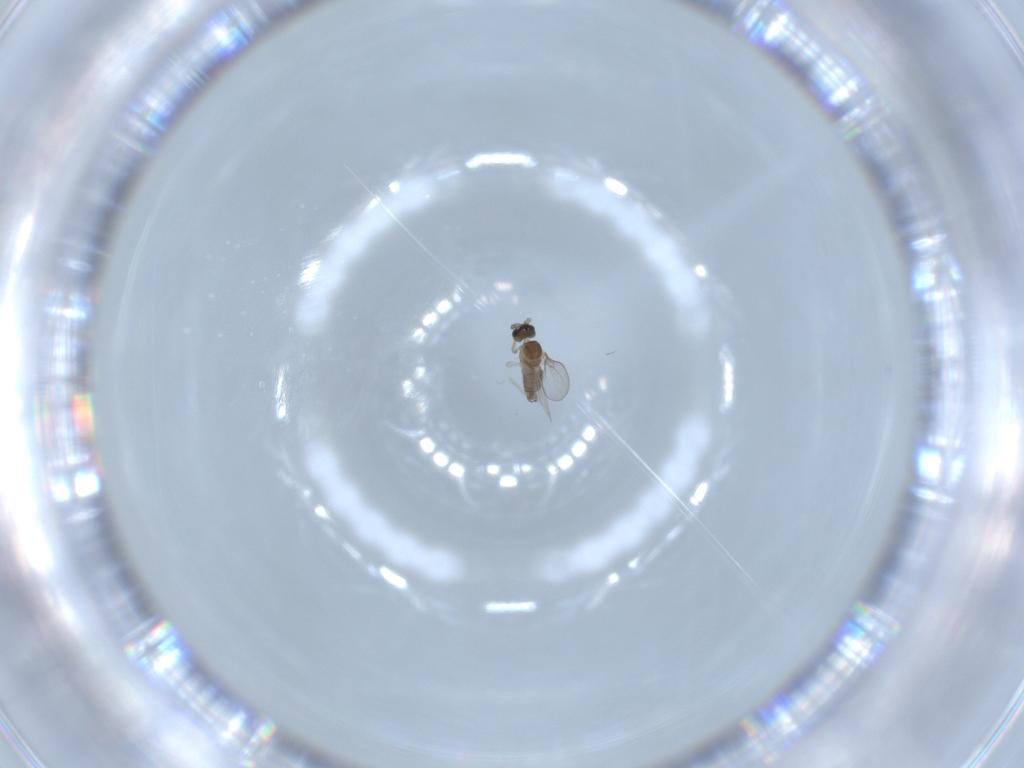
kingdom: Animalia
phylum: Arthropoda
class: Insecta
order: Diptera
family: Cecidomyiidae
